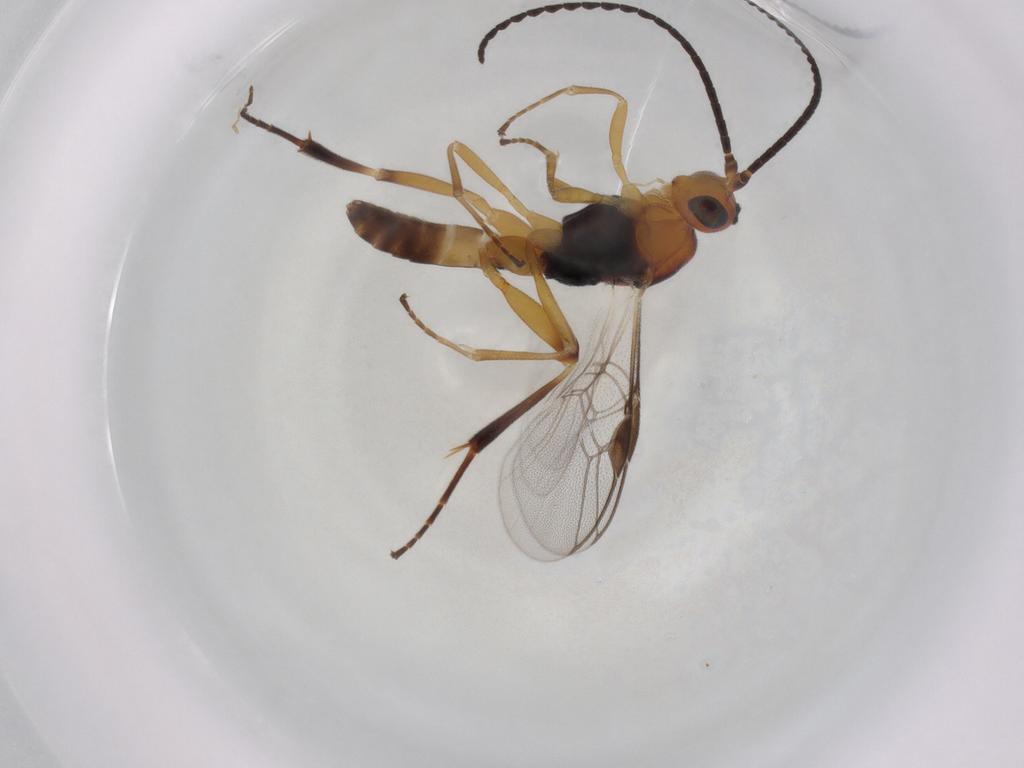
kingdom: Animalia
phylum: Arthropoda
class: Insecta
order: Hymenoptera
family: Braconidae
